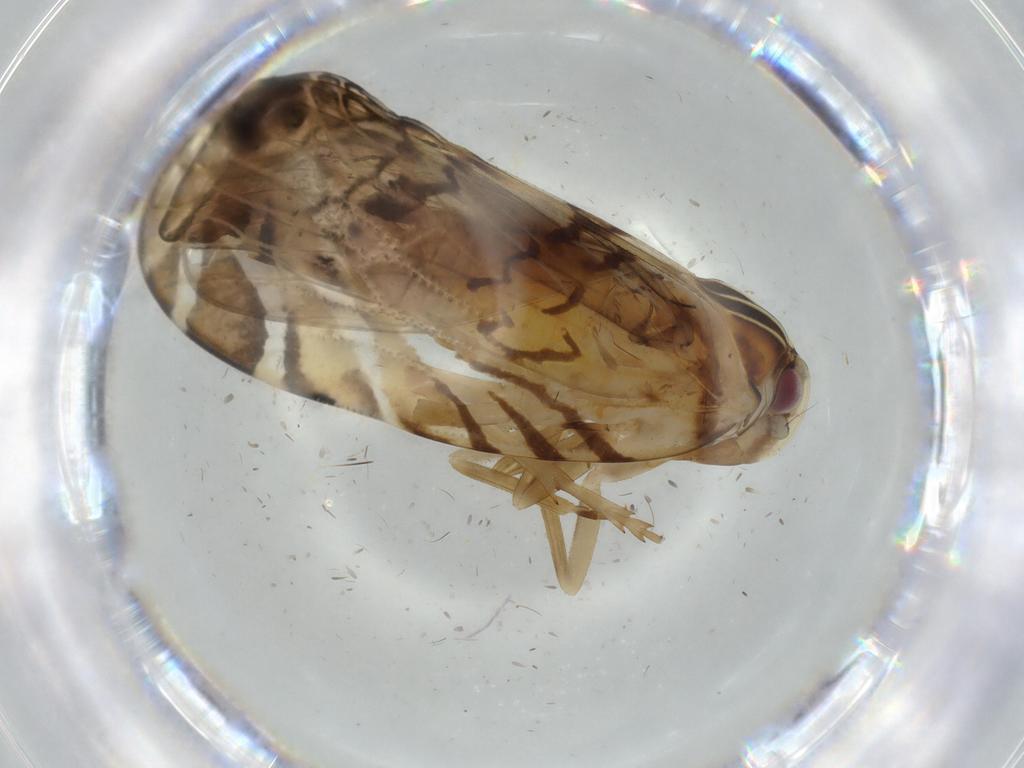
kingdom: Animalia
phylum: Arthropoda
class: Insecta
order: Hemiptera
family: Cixiidae
